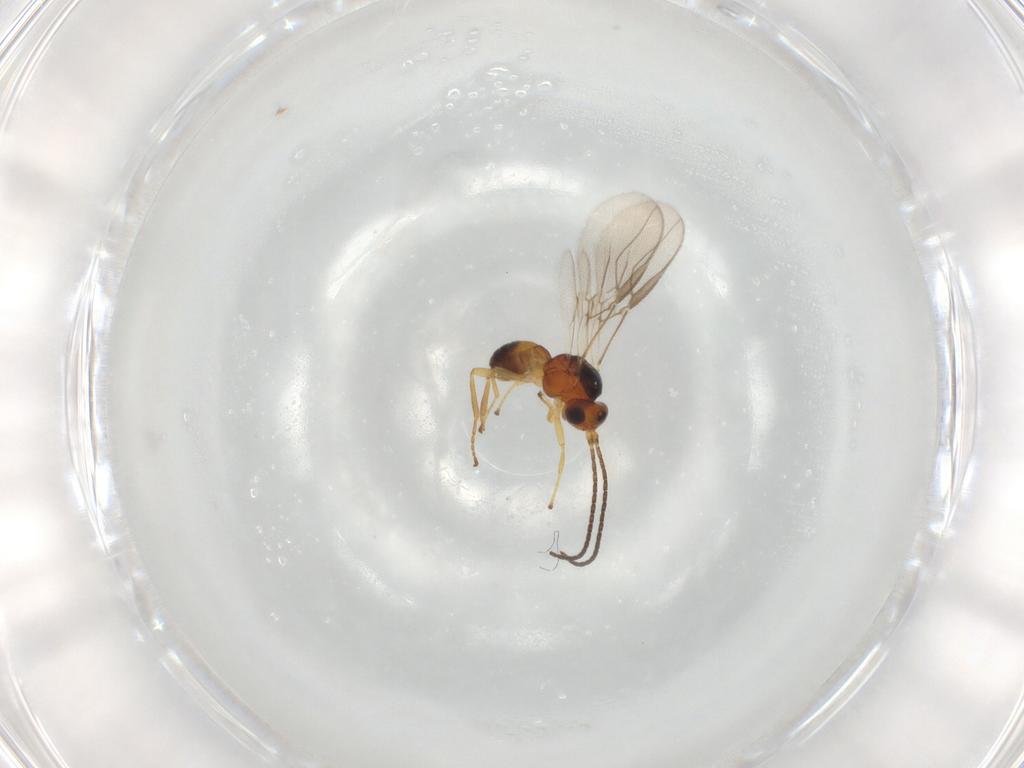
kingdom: Animalia
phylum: Arthropoda
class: Insecta
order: Hymenoptera
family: Braconidae
